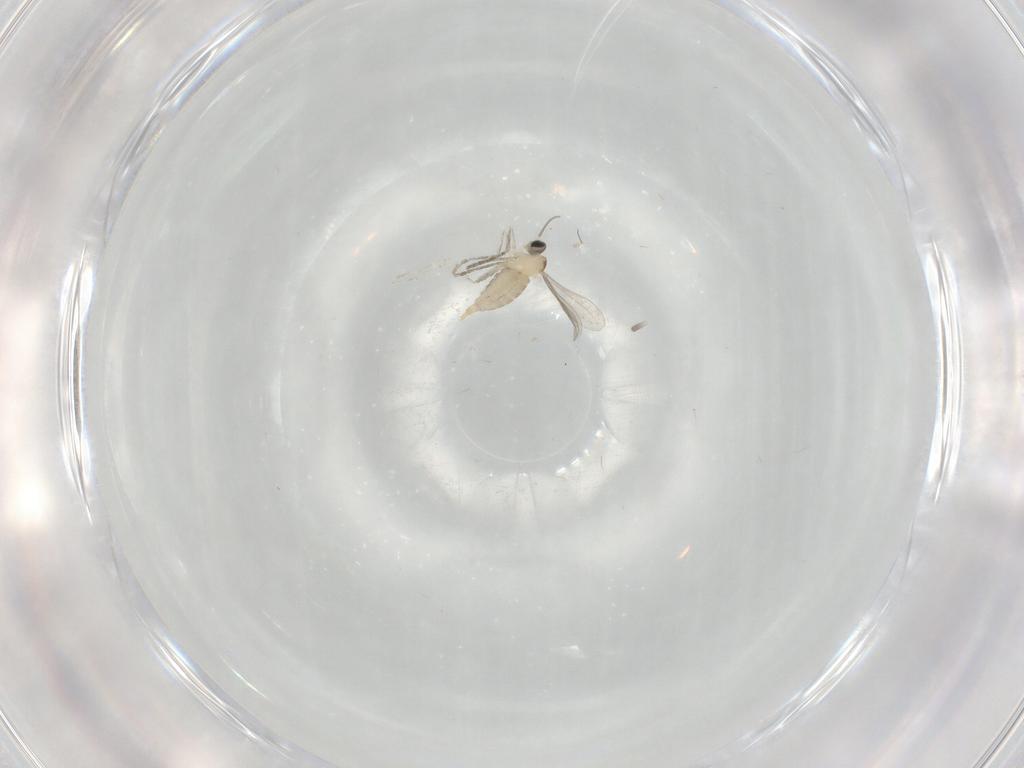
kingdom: Animalia
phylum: Arthropoda
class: Insecta
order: Diptera
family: Cecidomyiidae
